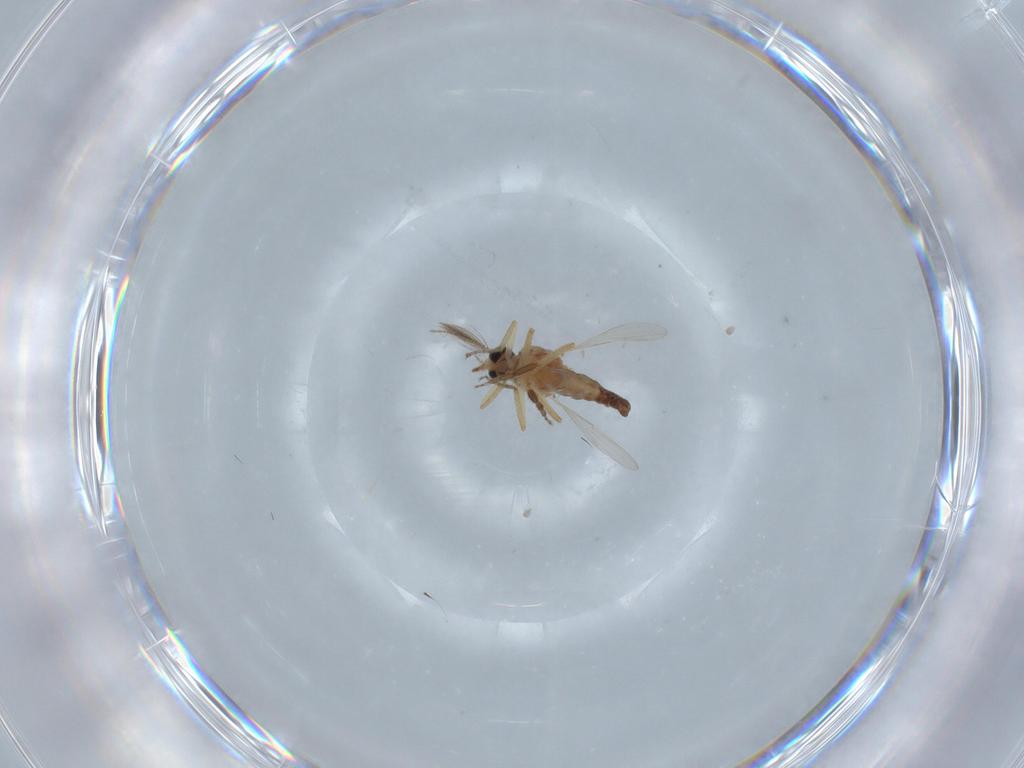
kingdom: Animalia
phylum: Arthropoda
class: Insecta
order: Diptera
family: Ceratopogonidae
